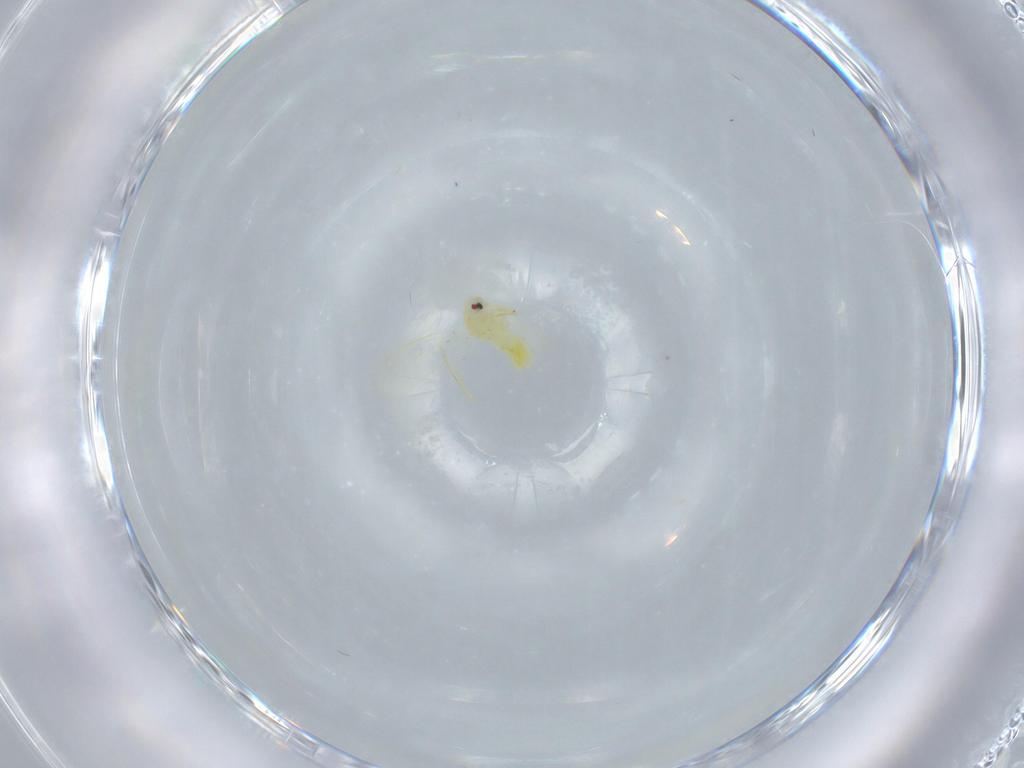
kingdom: Animalia
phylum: Arthropoda
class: Insecta
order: Hemiptera
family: Aleyrodidae
